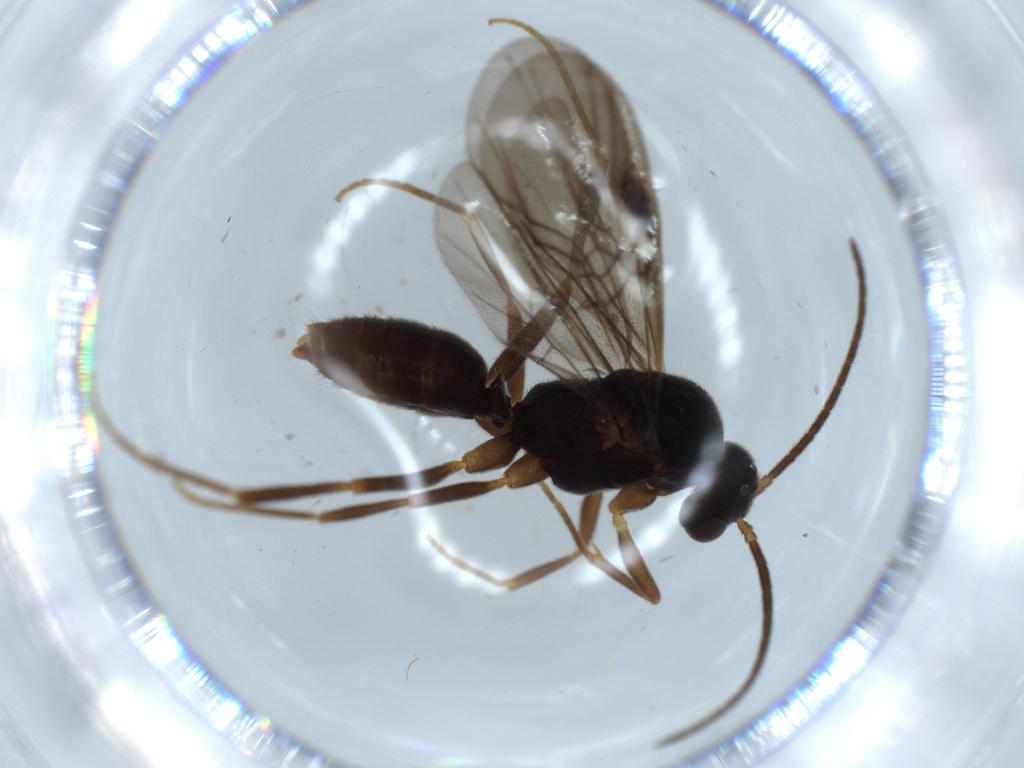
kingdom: Animalia
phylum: Arthropoda
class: Insecta
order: Hymenoptera
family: Formicidae
